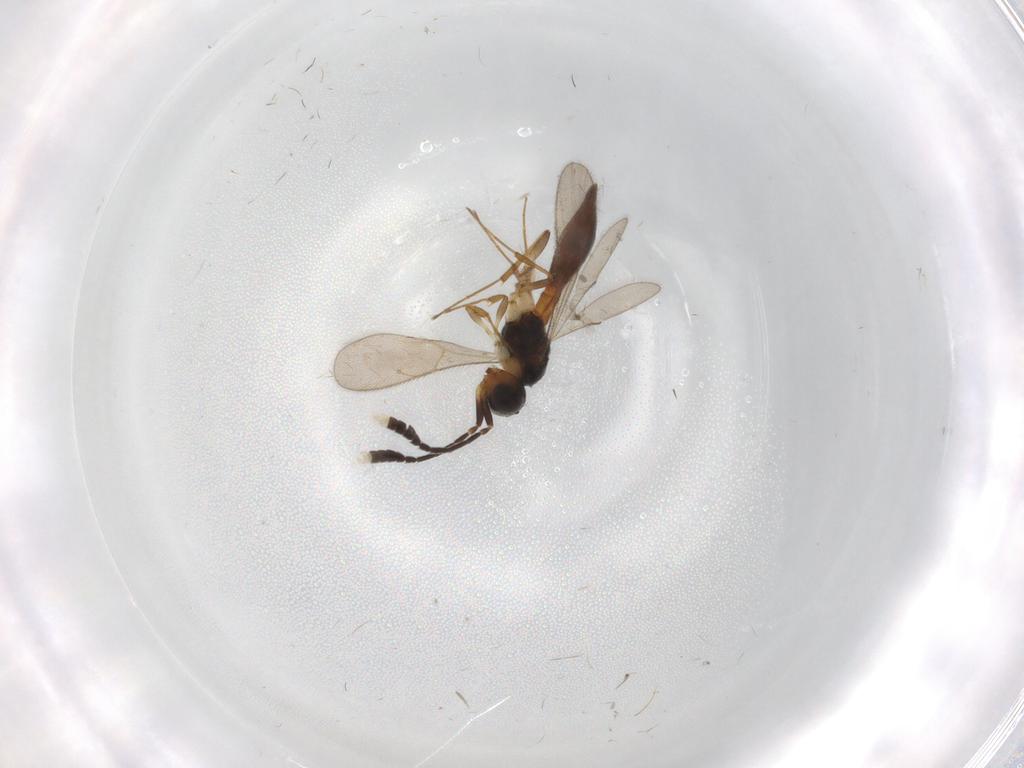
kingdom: Animalia
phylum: Arthropoda
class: Insecta
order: Hymenoptera
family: Scelionidae
